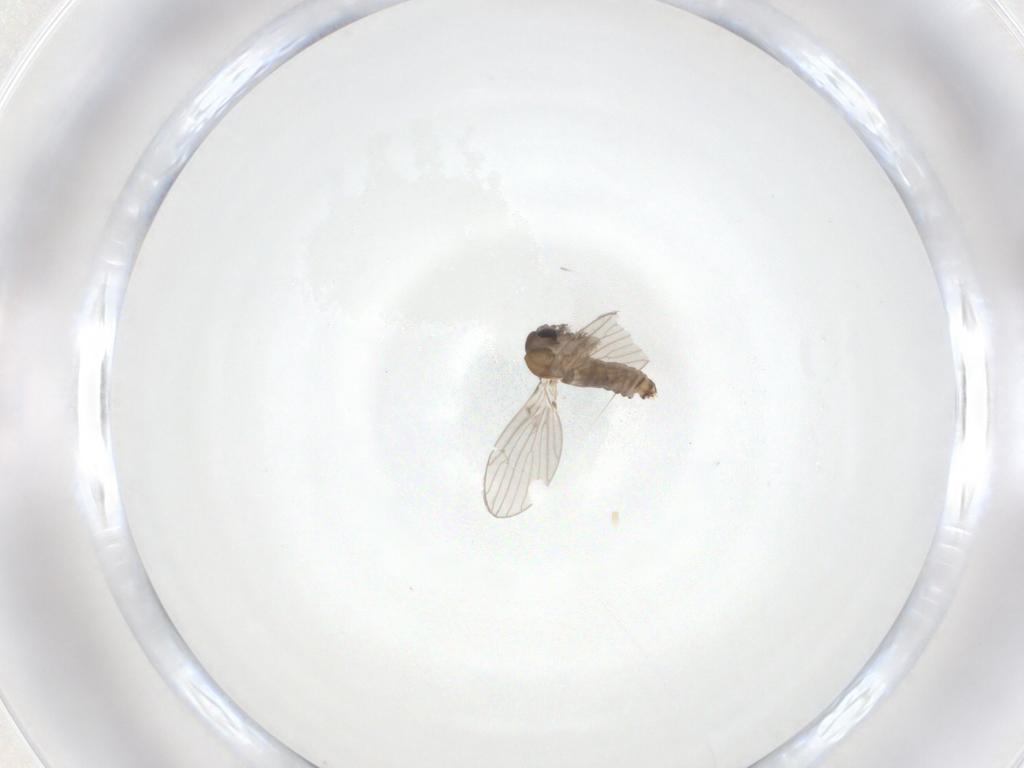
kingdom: Animalia
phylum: Arthropoda
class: Insecta
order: Diptera
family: Psychodidae
